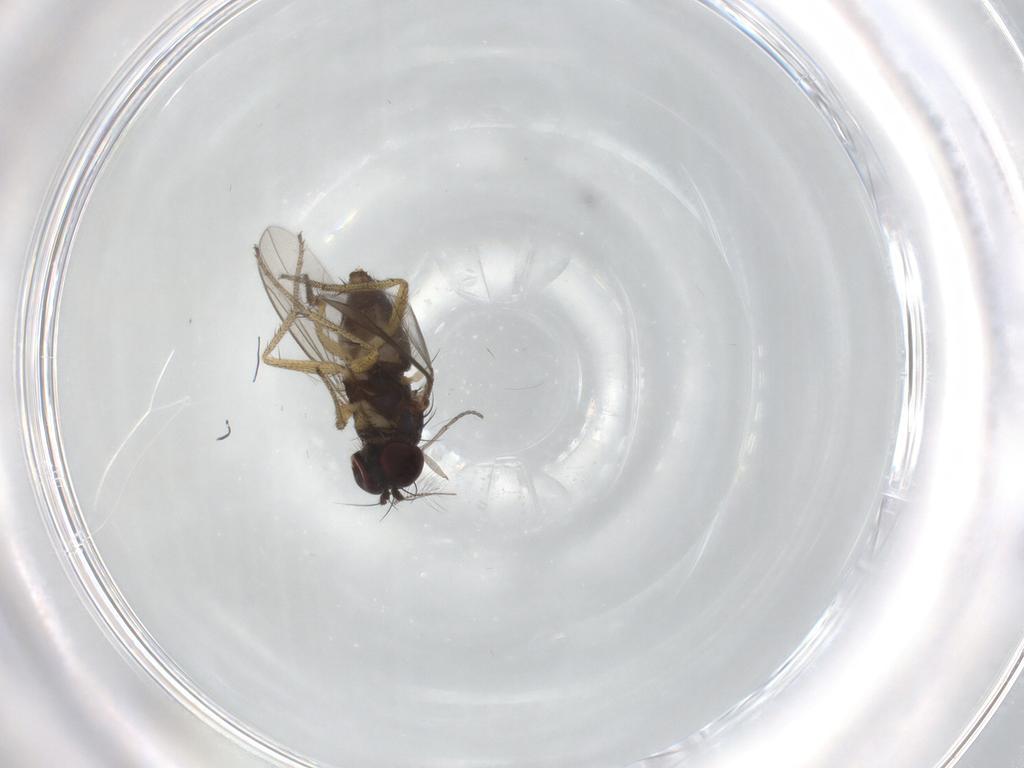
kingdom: Animalia
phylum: Arthropoda
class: Insecta
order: Diptera
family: Dolichopodidae
